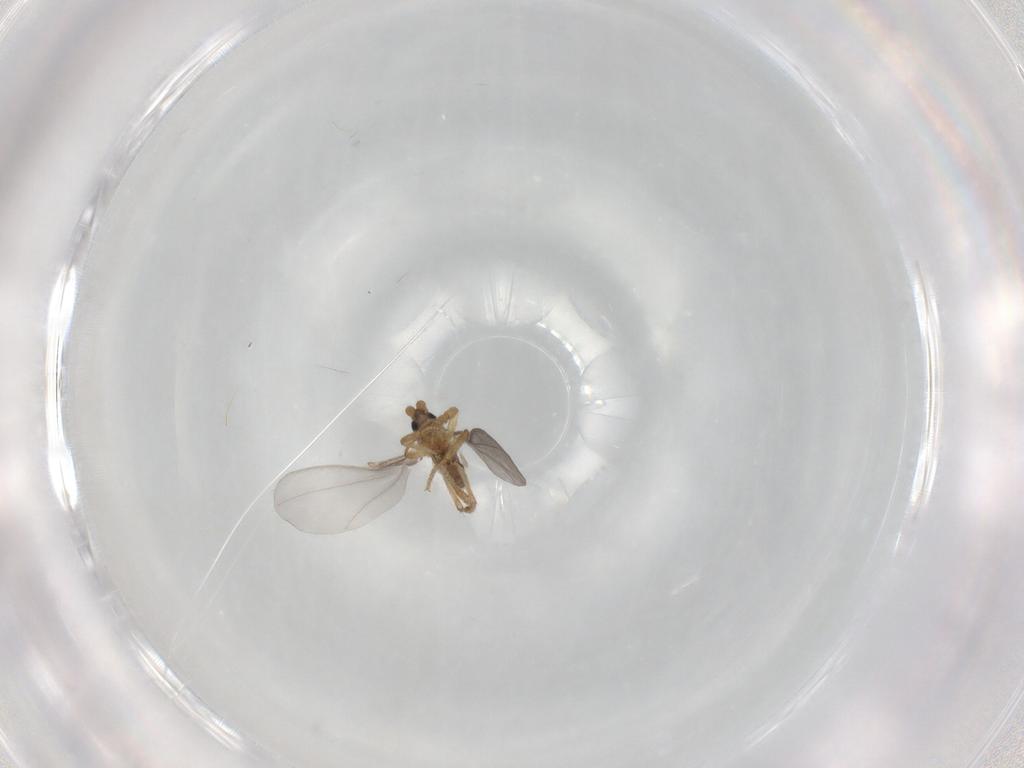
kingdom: Animalia
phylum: Arthropoda
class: Insecta
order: Diptera
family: Phoridae
